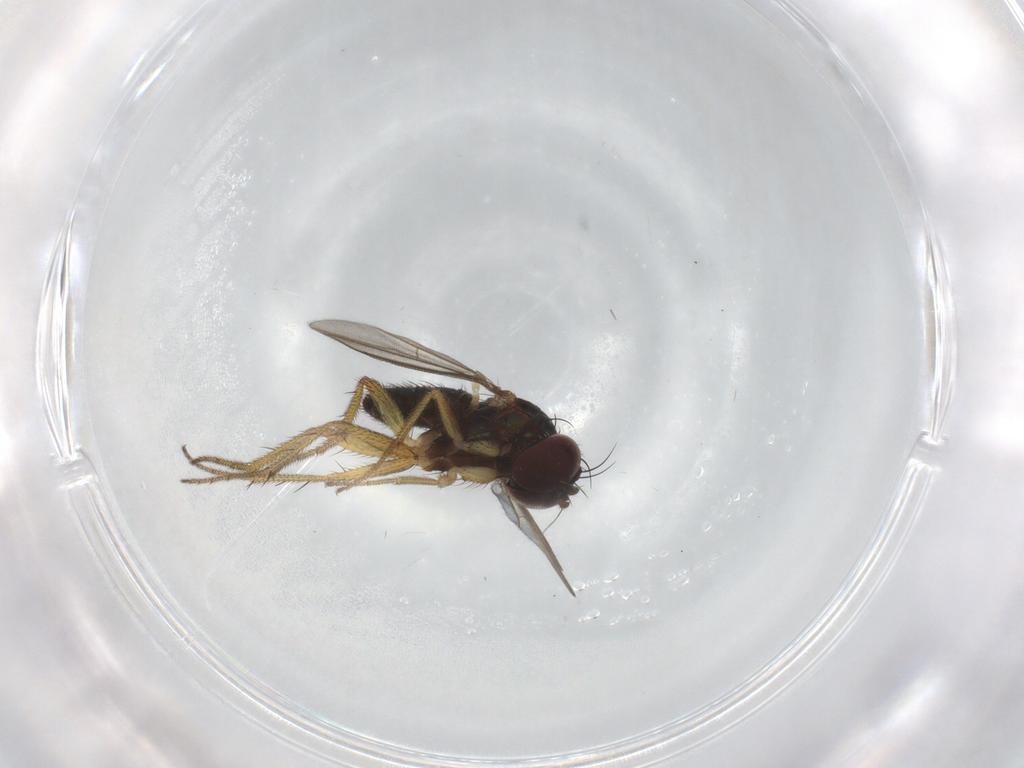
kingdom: Animalia
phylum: Arthropoda
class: Insecta
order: Diptera
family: Dolichopodidae
